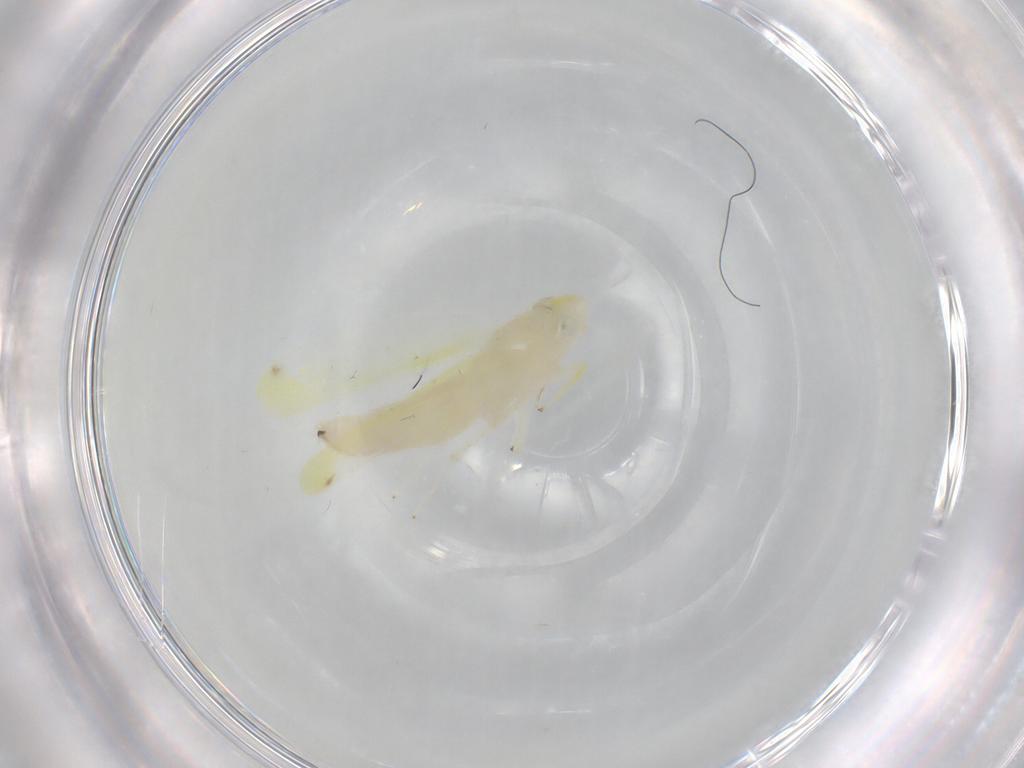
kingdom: Animalia
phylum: Arthropoda
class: Insecta
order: Hemiptera
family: Cicadellidae
